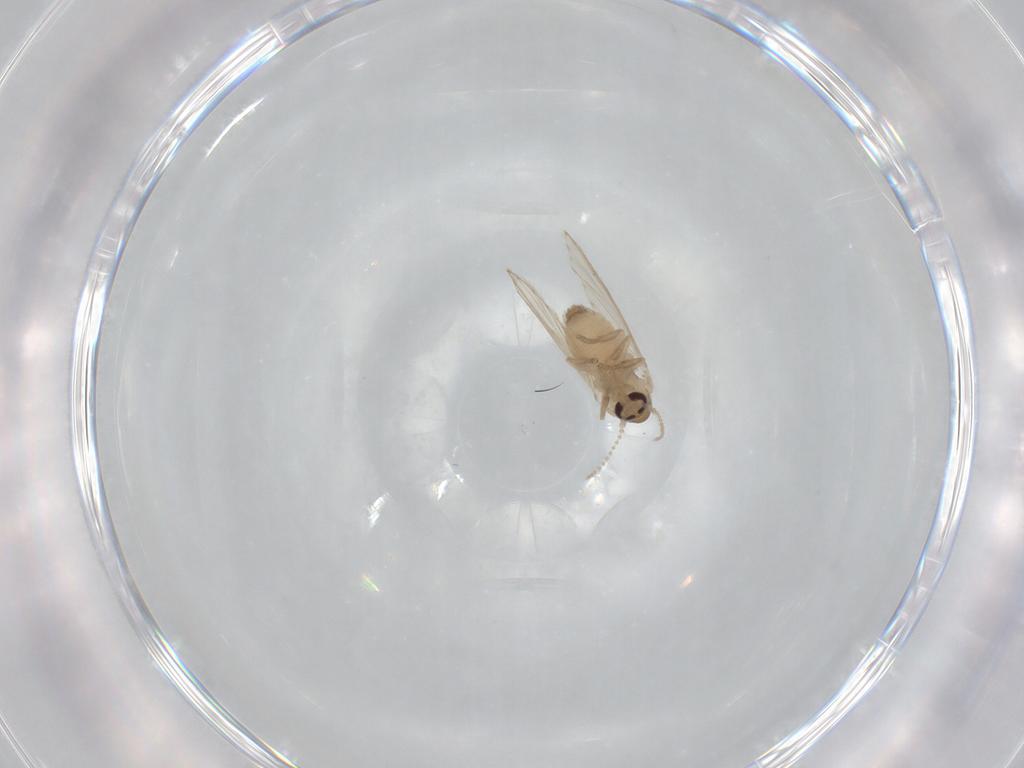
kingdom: Animalia
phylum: Arthropoda
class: Insecta
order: Diptera
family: Psychodidae
